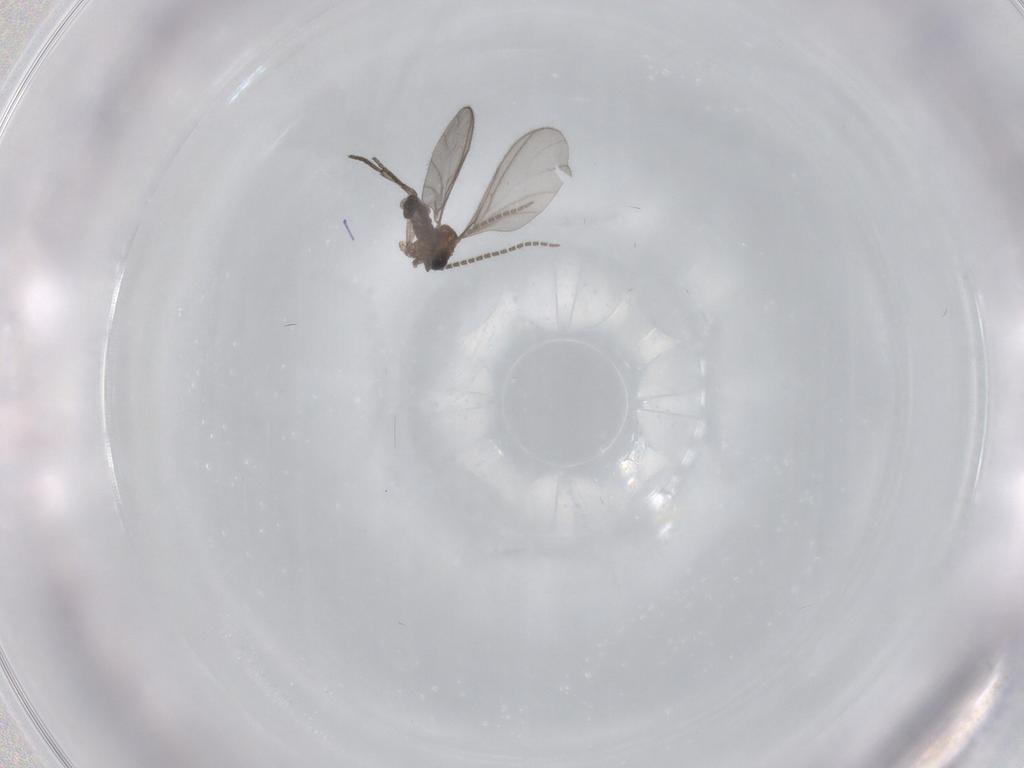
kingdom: Animalia
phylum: Arthropoda
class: Insecta
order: Diptera
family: Sciaridae
